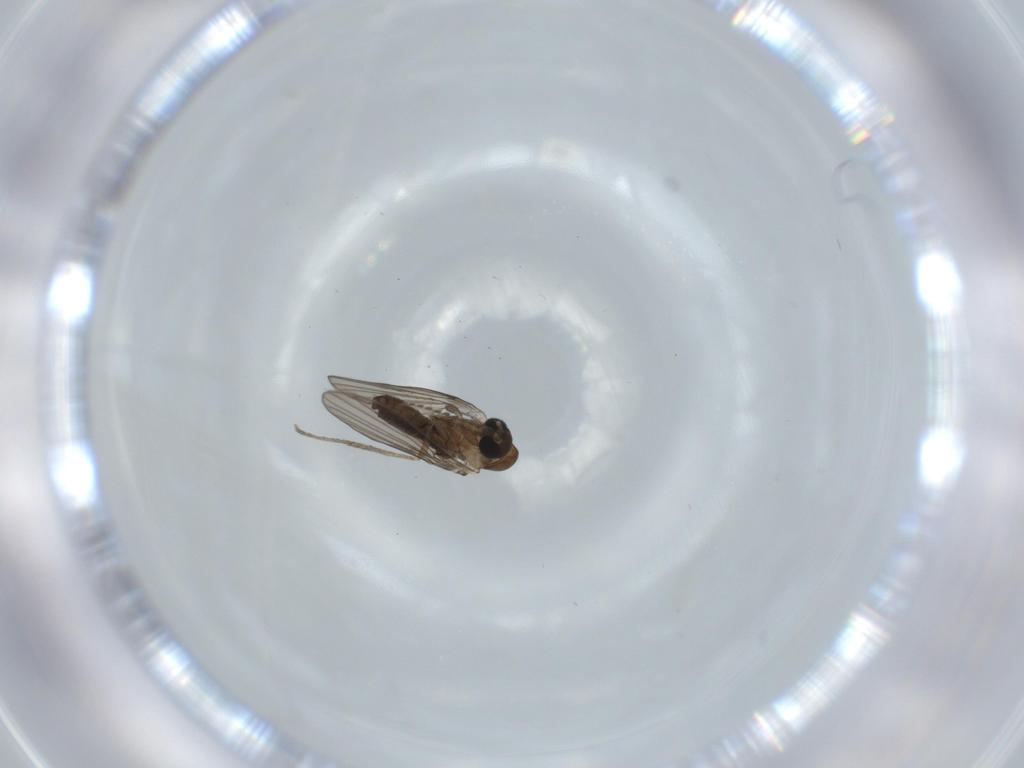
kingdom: Animalia
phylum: Arthropoda
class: Insecta
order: Diptera
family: Psychodidae
